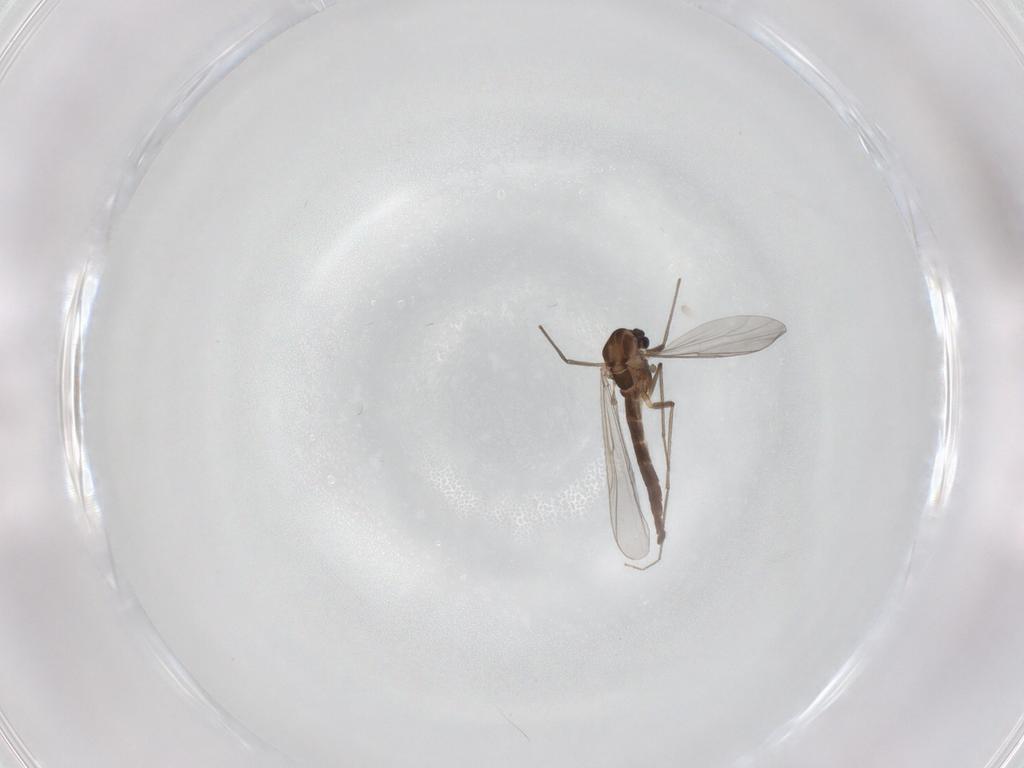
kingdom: Animalia
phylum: Arthropoda
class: Insecta
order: Diptera
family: Chironomidae
